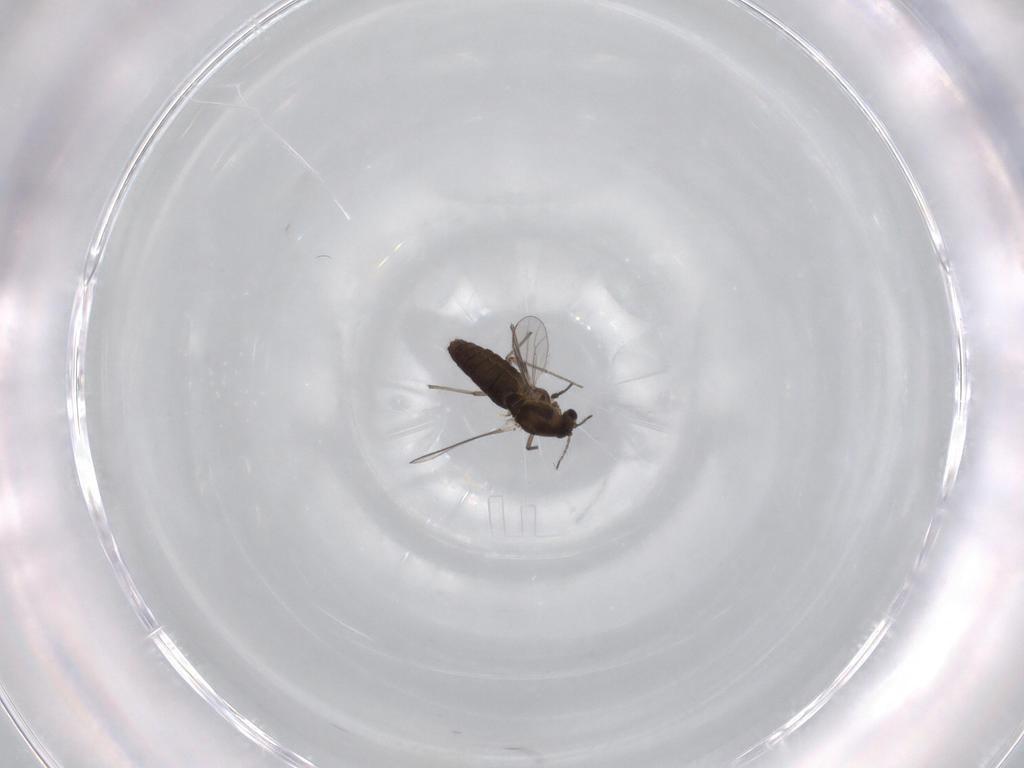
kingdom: Animalia
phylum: Arthropoda
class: Insecta
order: Diptera
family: Chironomidae
